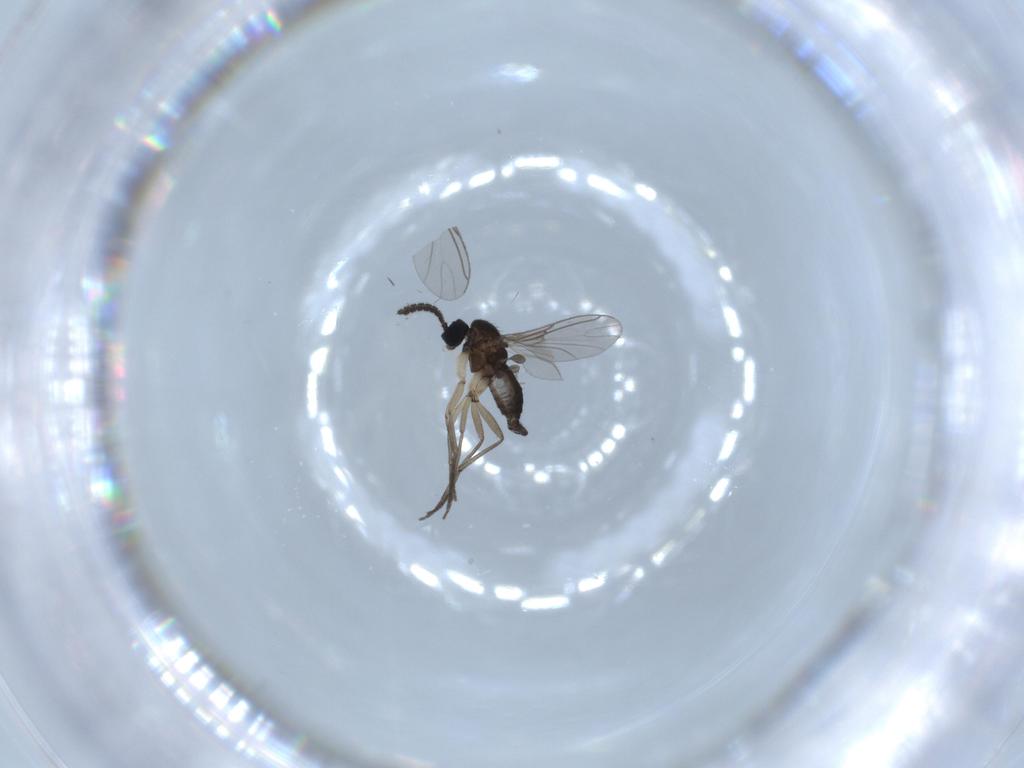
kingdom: Animalia
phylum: Arthropoda
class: Insecta
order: Diptera
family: Sciaridae
